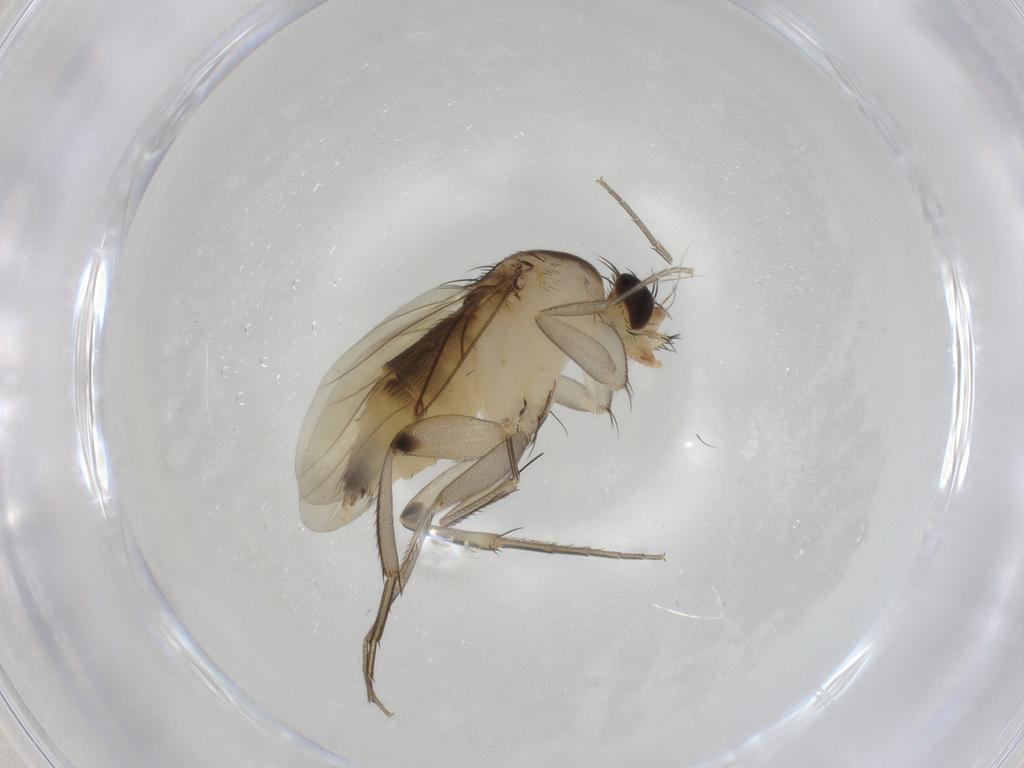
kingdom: Animalia
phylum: Arthropoda
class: Insecta
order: Diptera
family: Phoridae
